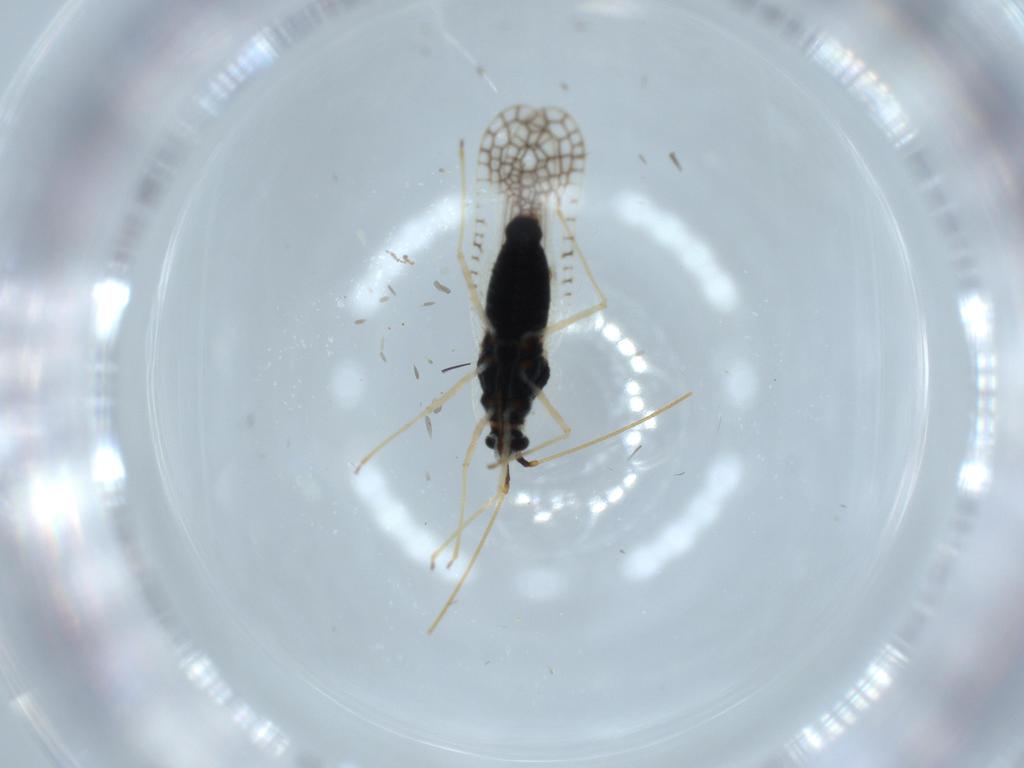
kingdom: Animalia
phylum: Arthropoda
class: Insecta
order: Hemiptera
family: Tingidae
